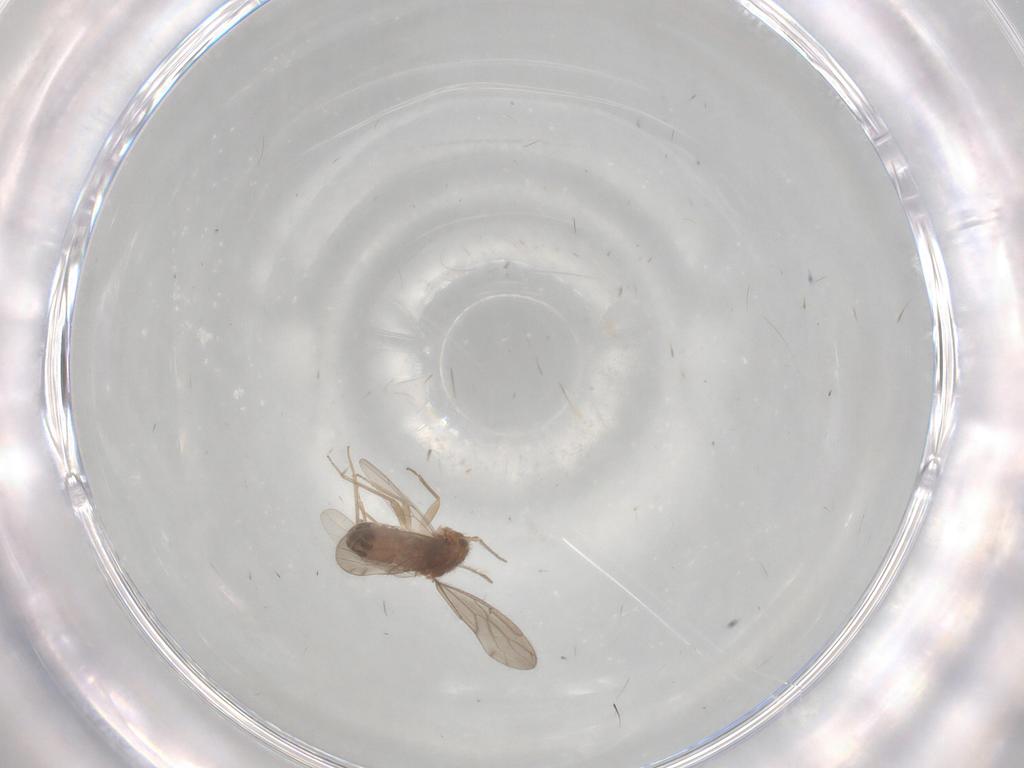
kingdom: Animalia
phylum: Arthropoda
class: Insecta
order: Psocodea
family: Ectopsocidae
